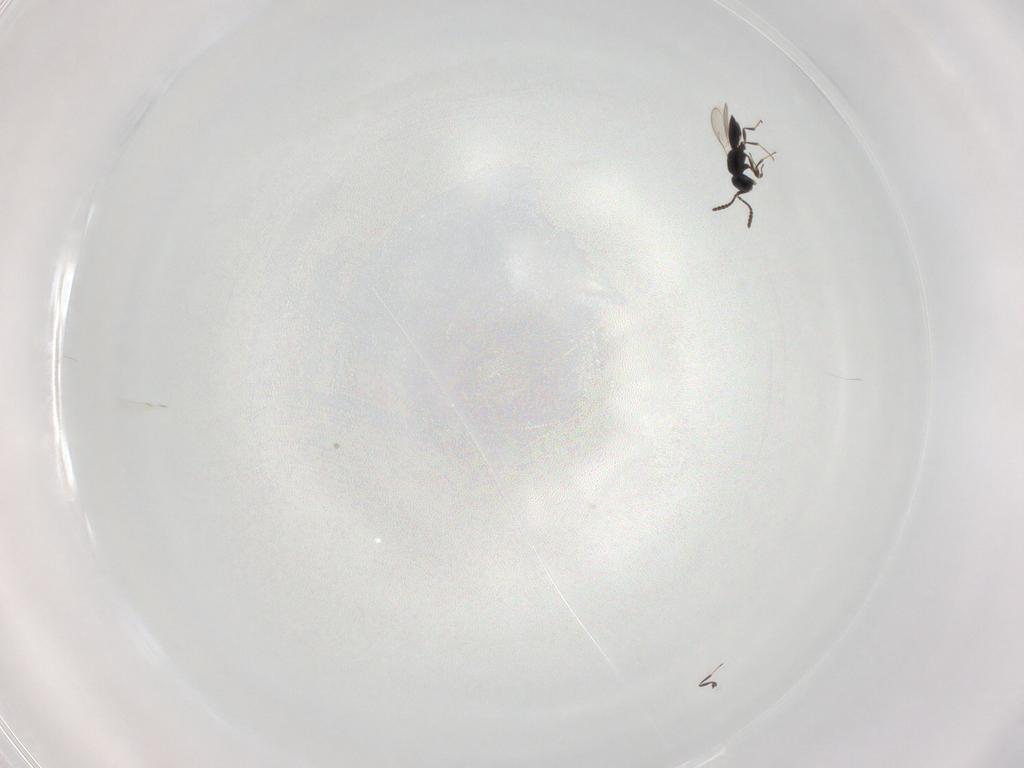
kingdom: Animalia
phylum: Arthropoda
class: Insecta
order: Hymenoptera
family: Scelionidae
